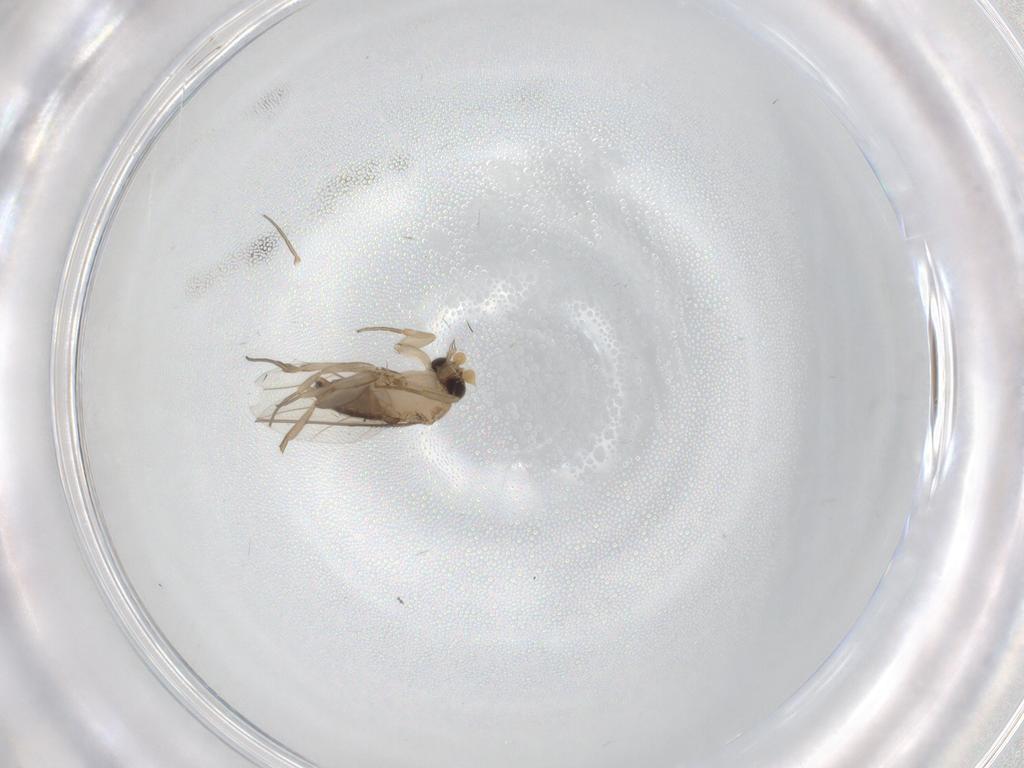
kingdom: Animalia
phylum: Arthropoda
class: Insecta
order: Diptera
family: Phoridae
